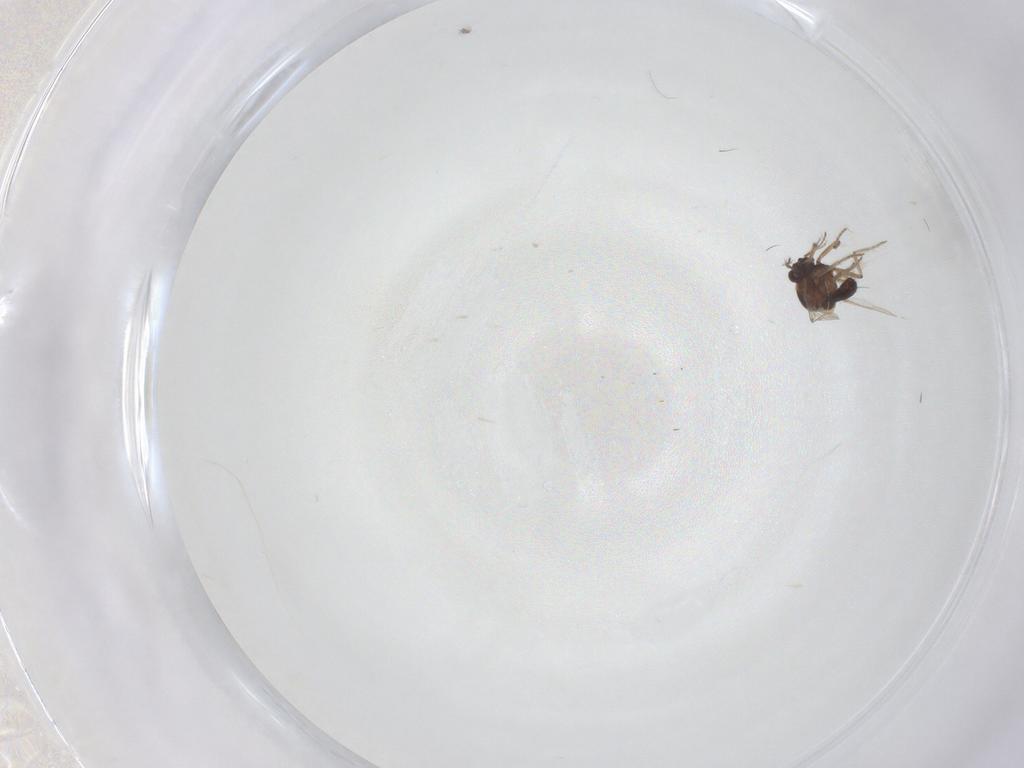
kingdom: Animalia
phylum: Arthropoda
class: Insecta
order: Diptera
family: Ceratopogonidae
